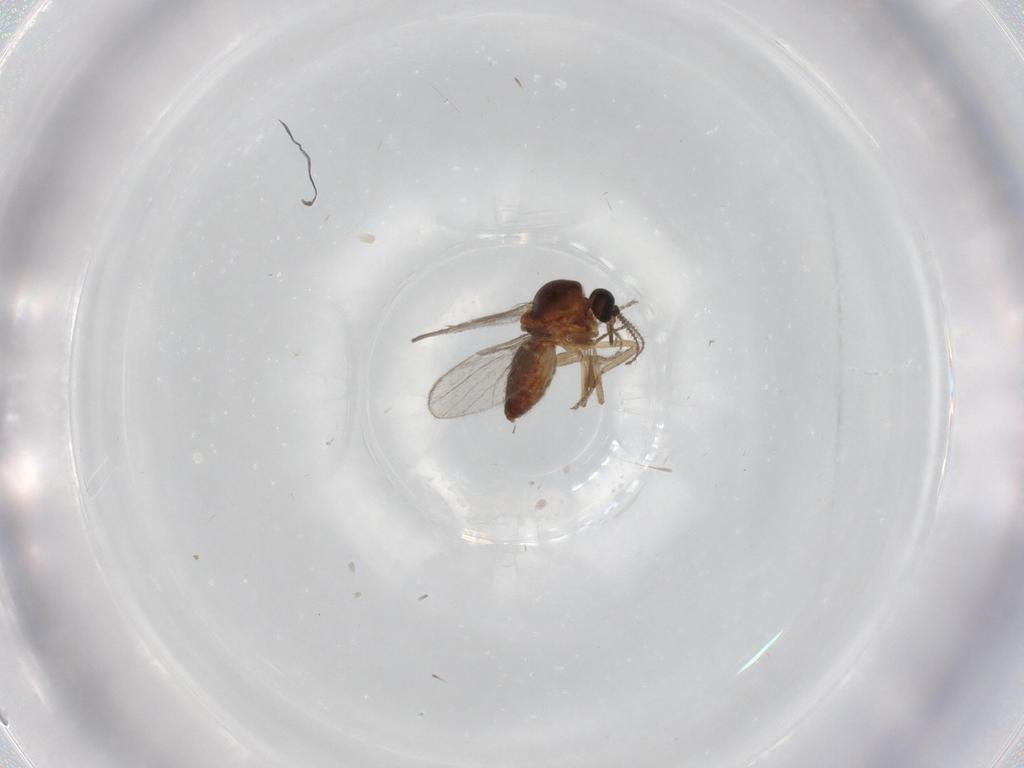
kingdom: Animalia
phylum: Arthropoda
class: Insecta
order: Diptera
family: Ceratopogonidae
